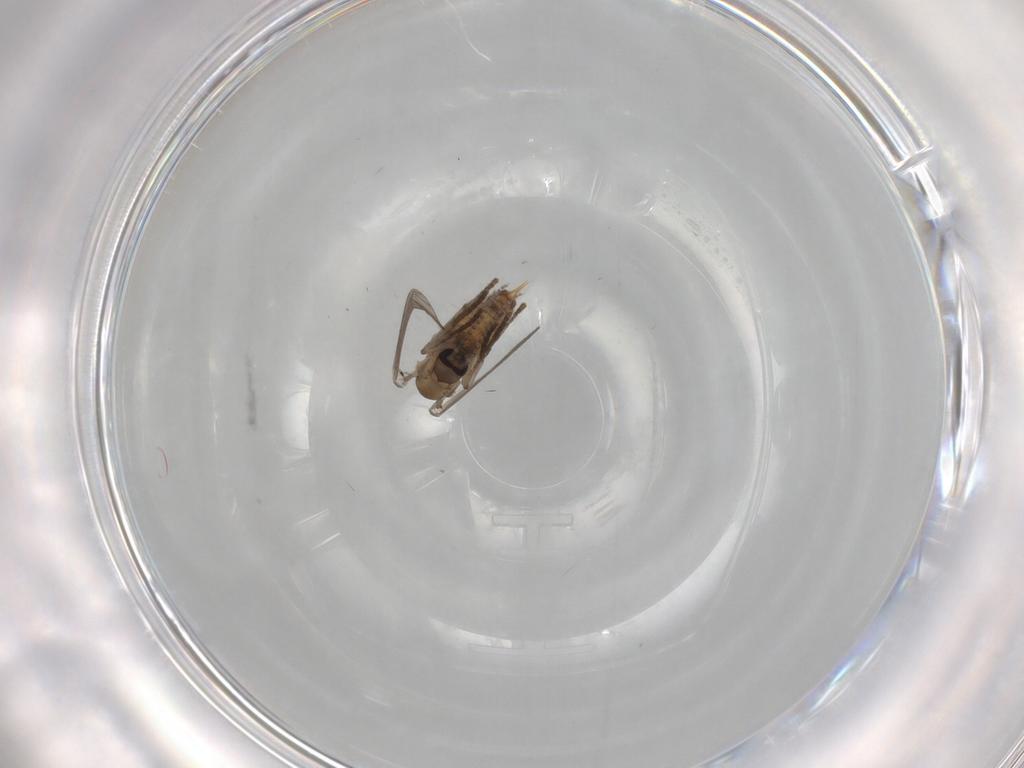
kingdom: Animalia
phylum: Arthropoda
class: Insecta
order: Diptera
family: Psychodidae
